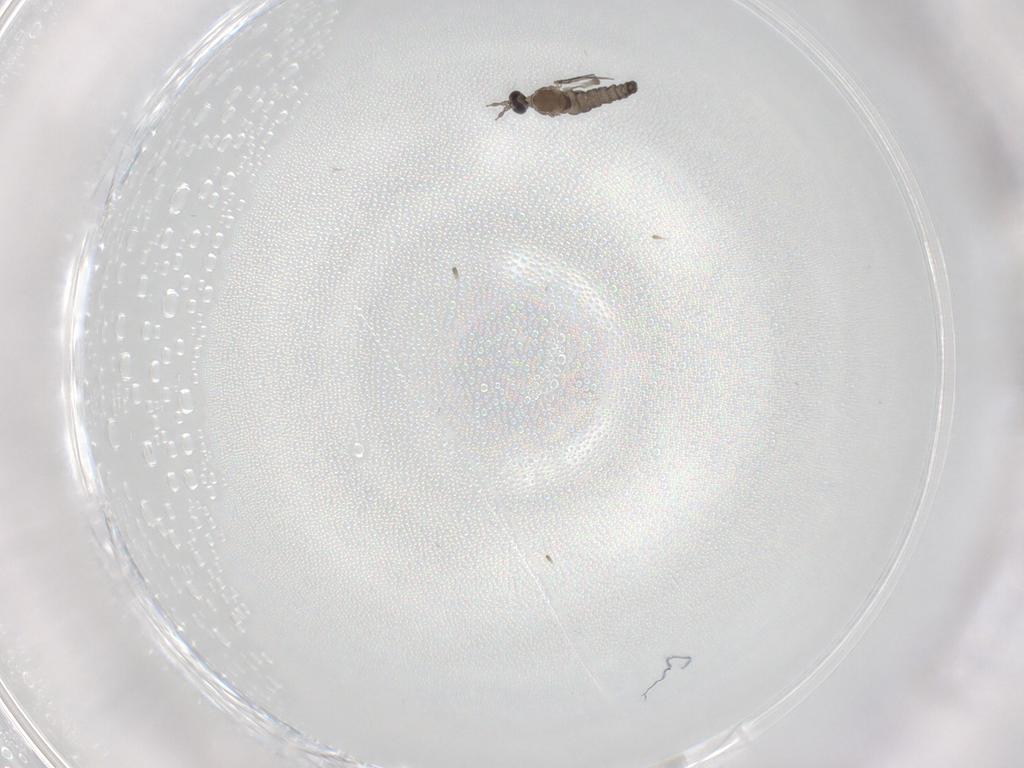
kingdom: Animalia
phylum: Arthropoda
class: Insecta
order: Diptera
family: Cecidomyiidae
